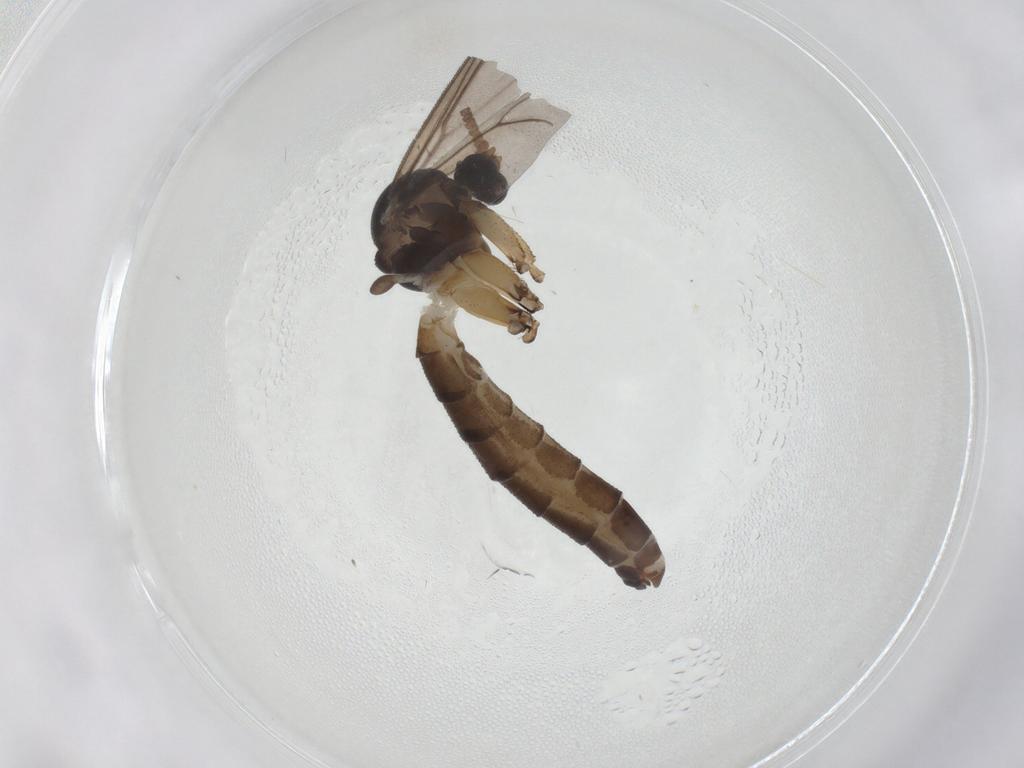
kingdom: Animalia
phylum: Arthropoda
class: Insecta
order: Diptera
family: Mycetophilidae
